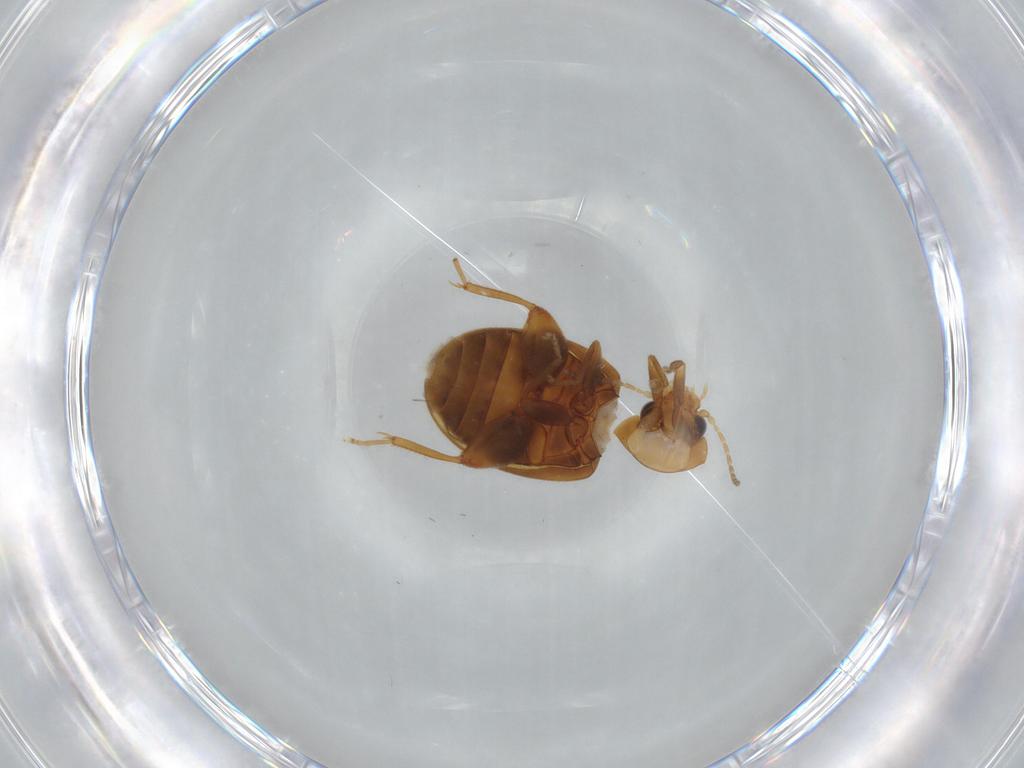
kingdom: Animalia
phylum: Arthropoda
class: Insecta
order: Coleoptera
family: Scirtidae
